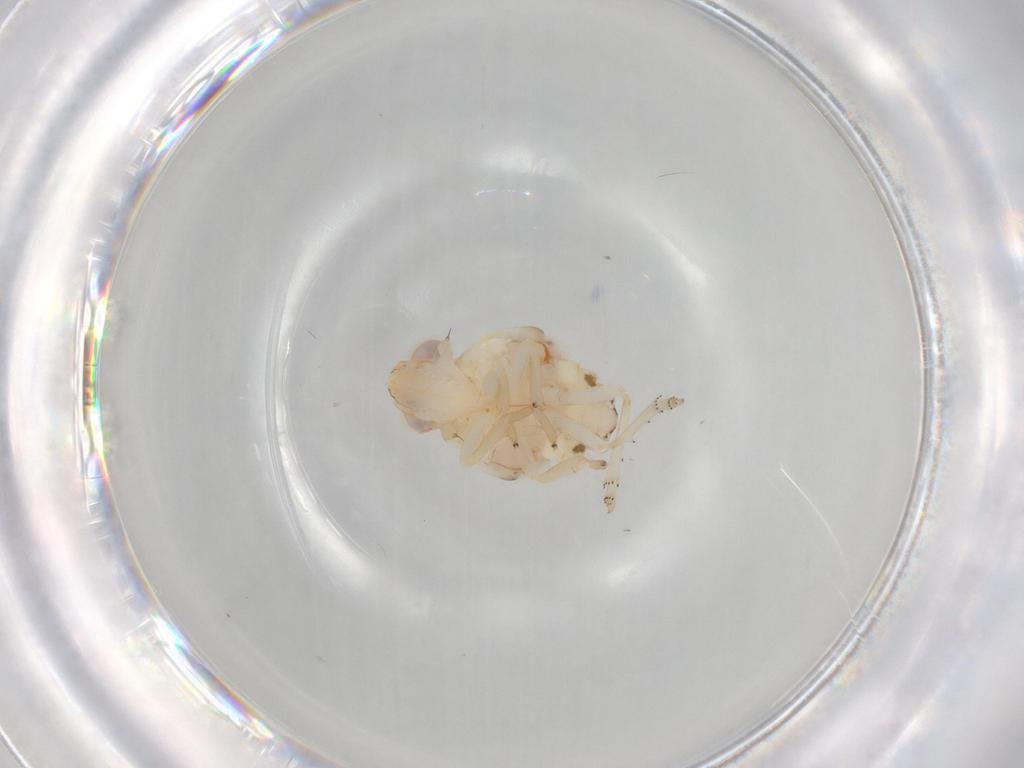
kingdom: Animalia
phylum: Arthropoda
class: Insecta
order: Hemiptera
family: Nogodinidae
